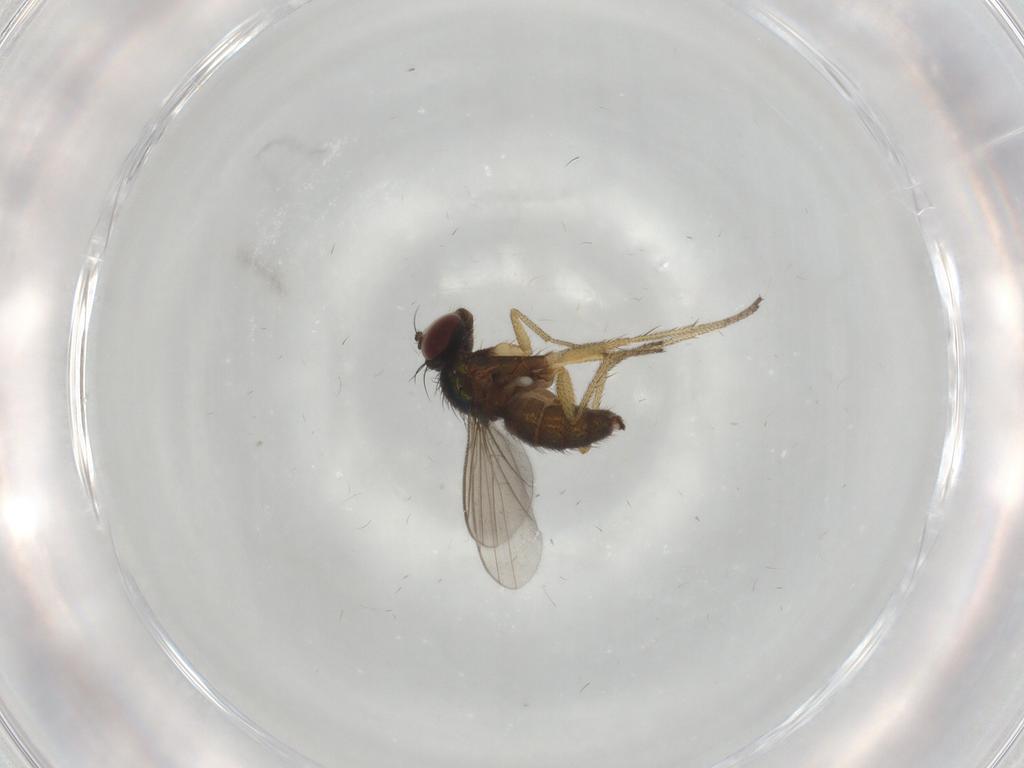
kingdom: Animalia
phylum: Arthropoda
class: Insecta
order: Diptera
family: Dolichopodidae
